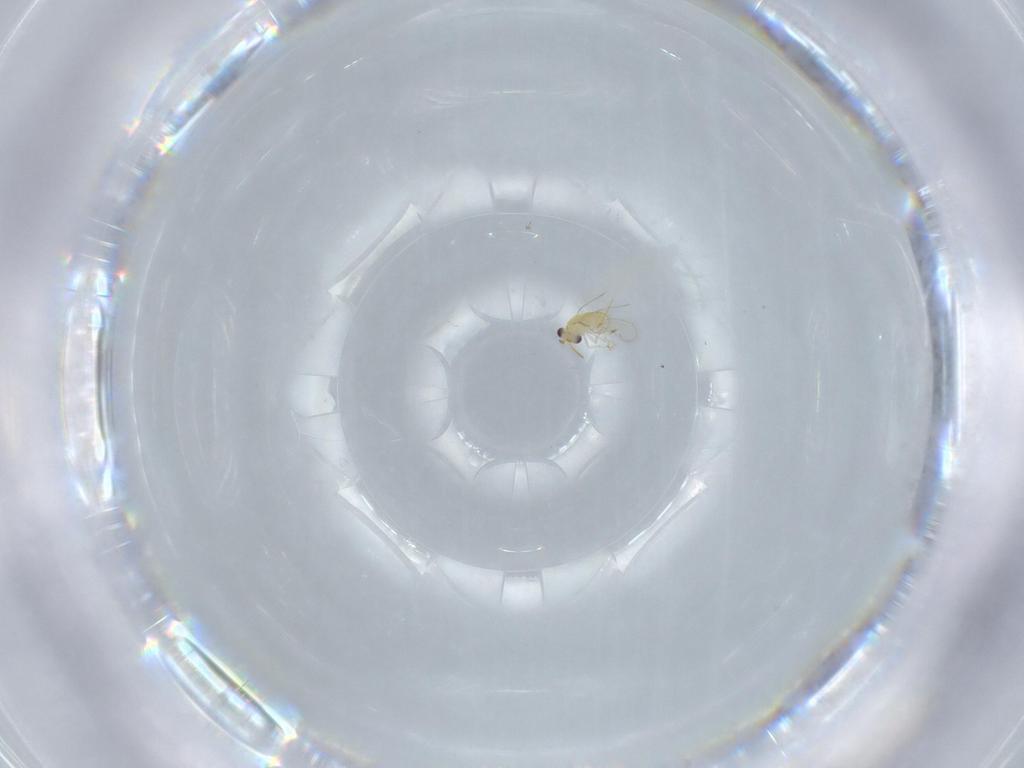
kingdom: Animalia
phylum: Arthropoda
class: Insecta
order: Hymenoptera
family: Aphelinidae
